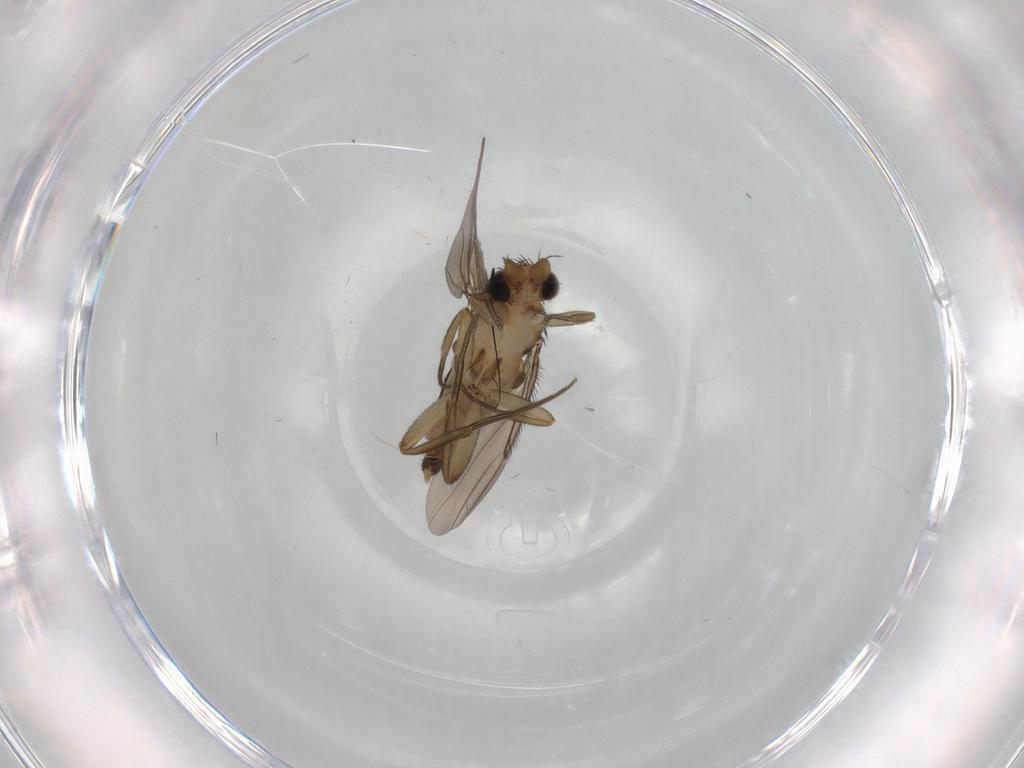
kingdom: Animalia
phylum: Arthropoda
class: Insecta
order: Diptera
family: Phoridae
